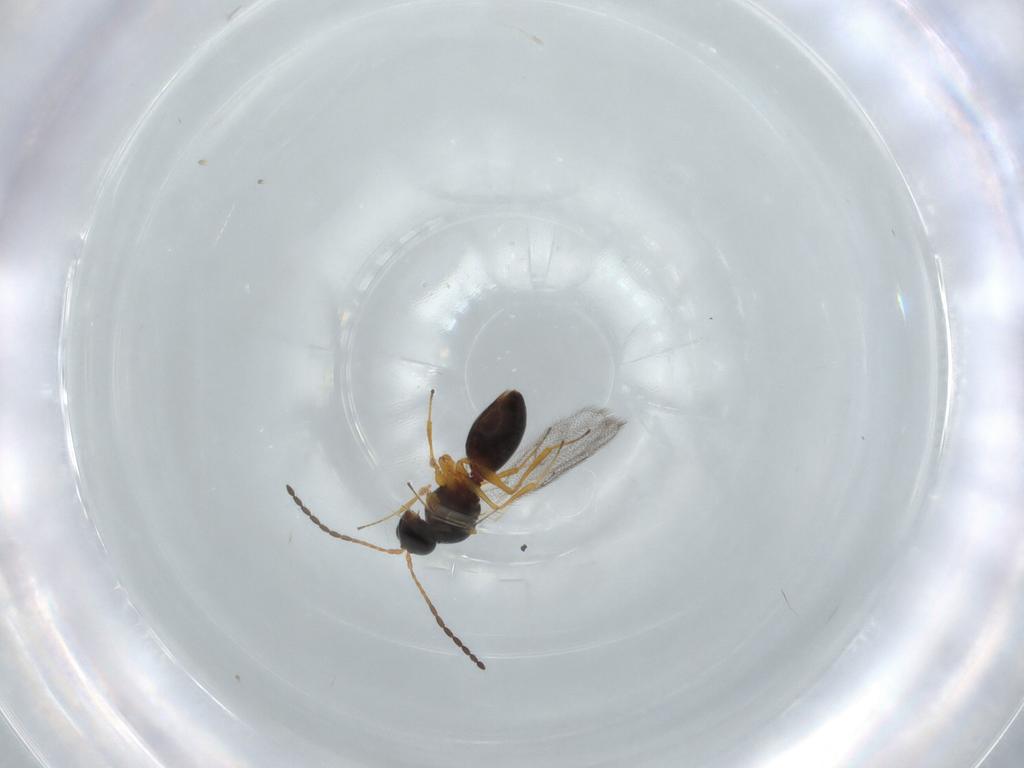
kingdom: Animalia
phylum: Arthropoda
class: Insecta
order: Hymenoptera
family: Figitidae
